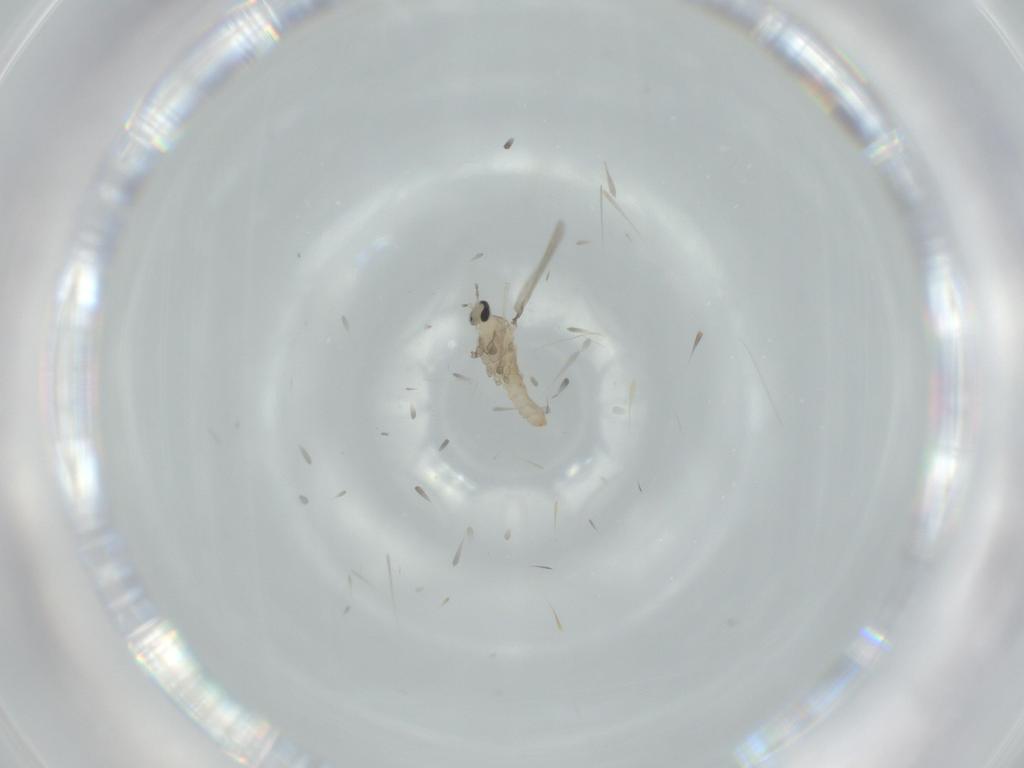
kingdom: Animalia
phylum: Arthropoda
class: Insecta
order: Diptera
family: Cecidomyiidae
